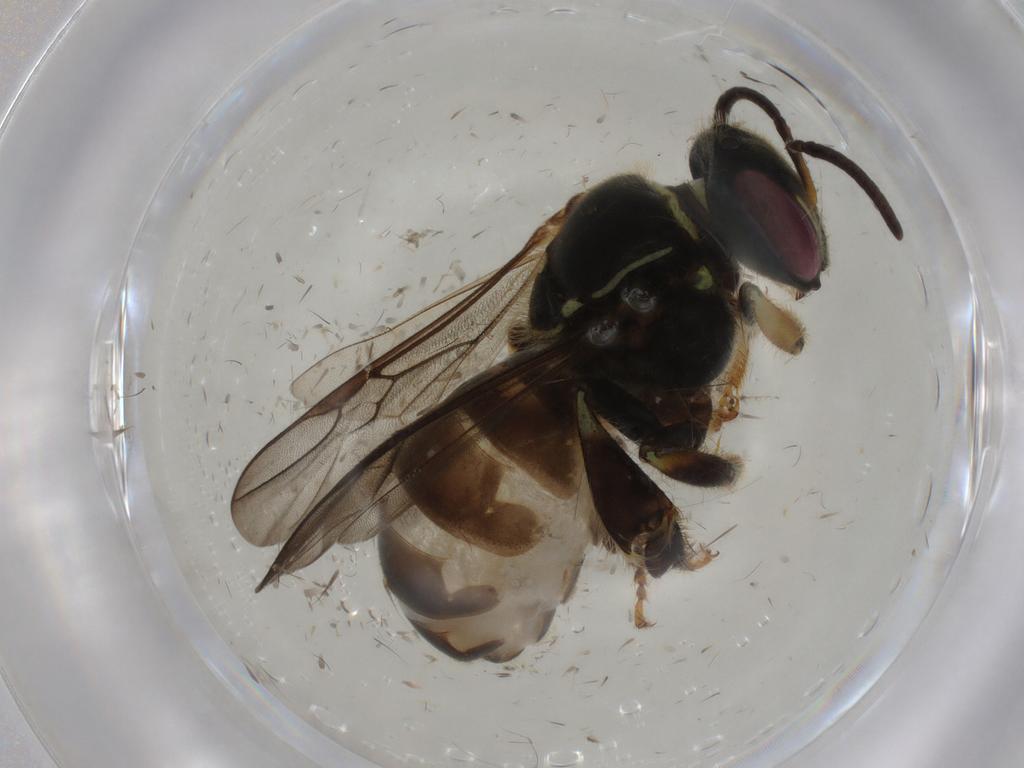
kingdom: Animalia
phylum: Arthropoda
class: Insecta
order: Hymenoptera
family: Apidae
